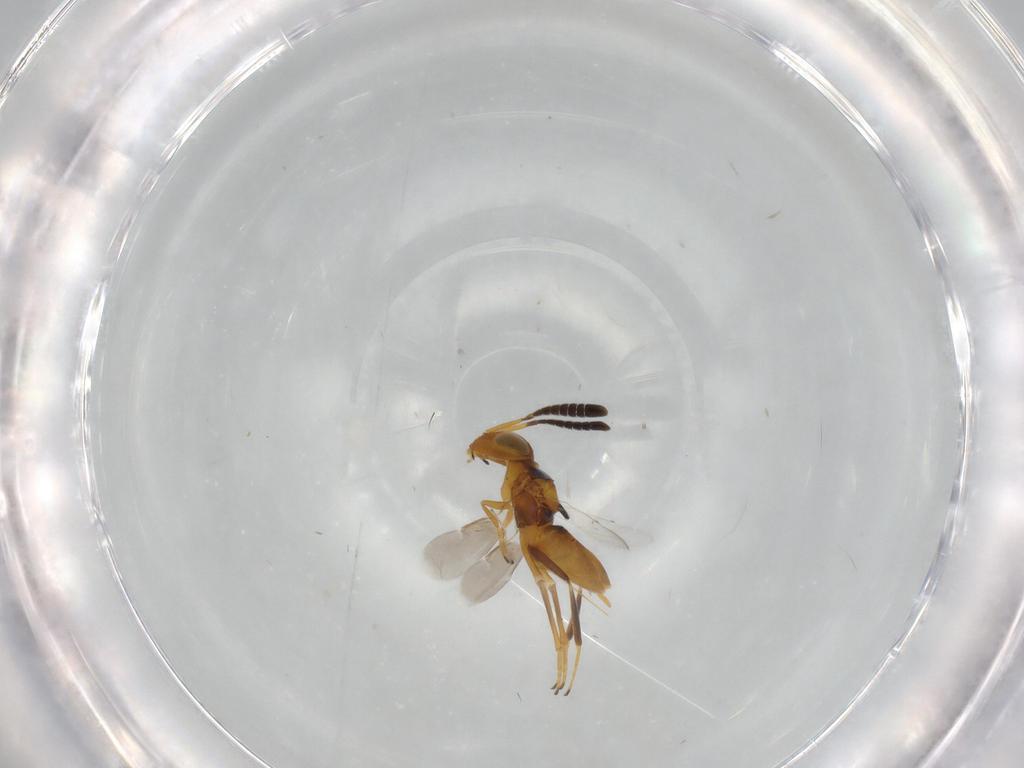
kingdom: Animalia
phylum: Arthropoda
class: Insecta
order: Hymenoptera
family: Encyrtidae
